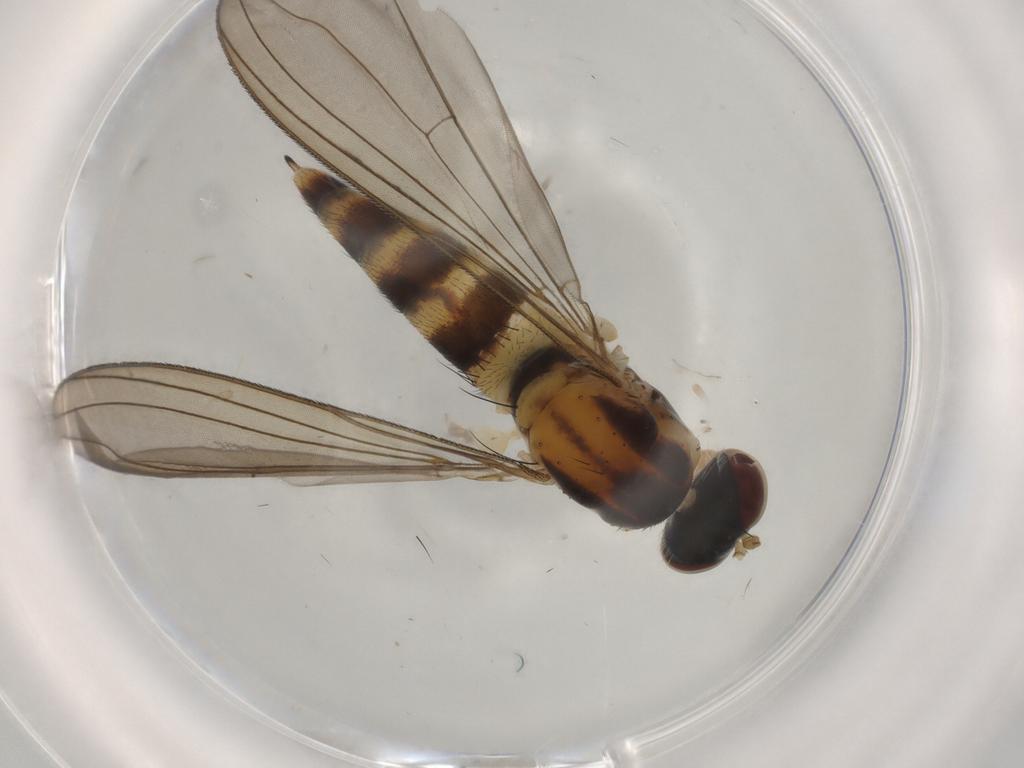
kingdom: Animalia
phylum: Arthropoda
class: Insecta
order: Diptera
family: Chironomidae
